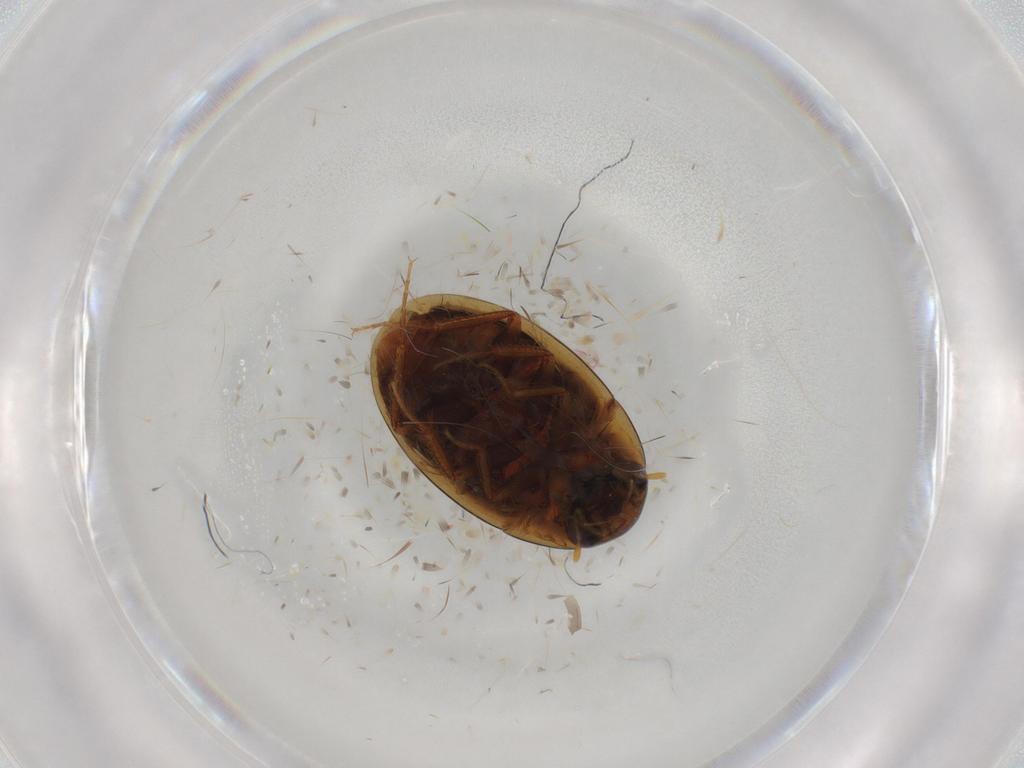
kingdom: Animalia
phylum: Arthropoda
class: Insecta
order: Coleoptera
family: Hydrophilidae
